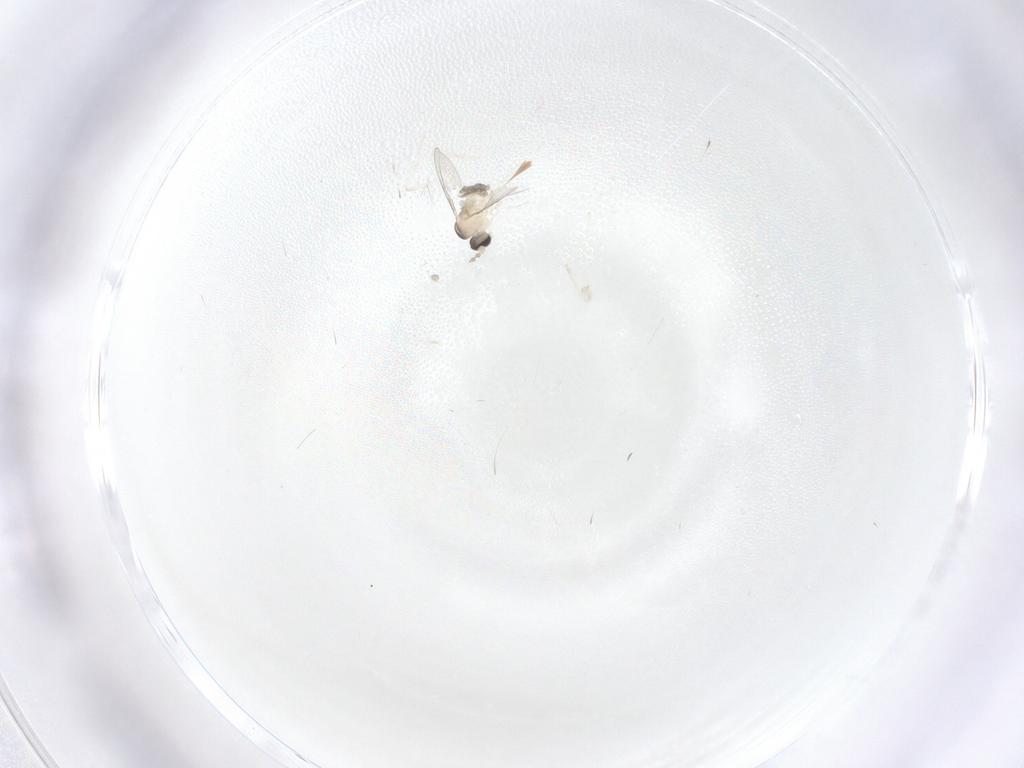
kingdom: Animalia
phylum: Arthropoda
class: Insecta
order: Diptera
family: Cecidomyiidae
